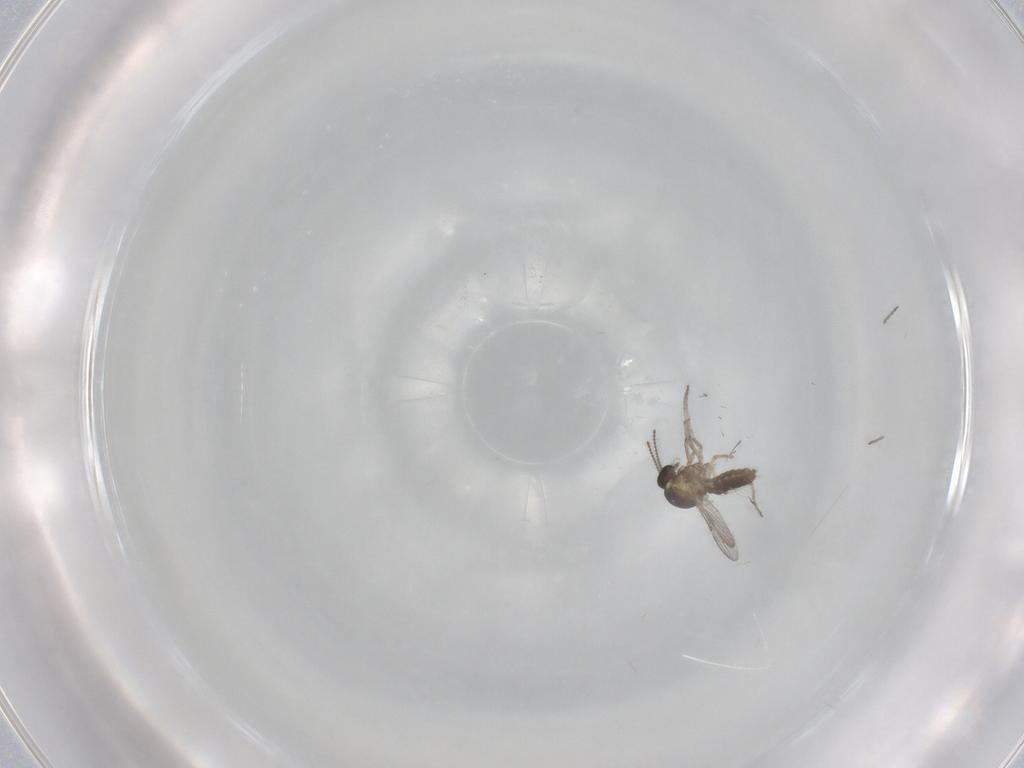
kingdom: Animalia
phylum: Arthropoda
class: Insecta
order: Diptera
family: Ceratopogonidae
